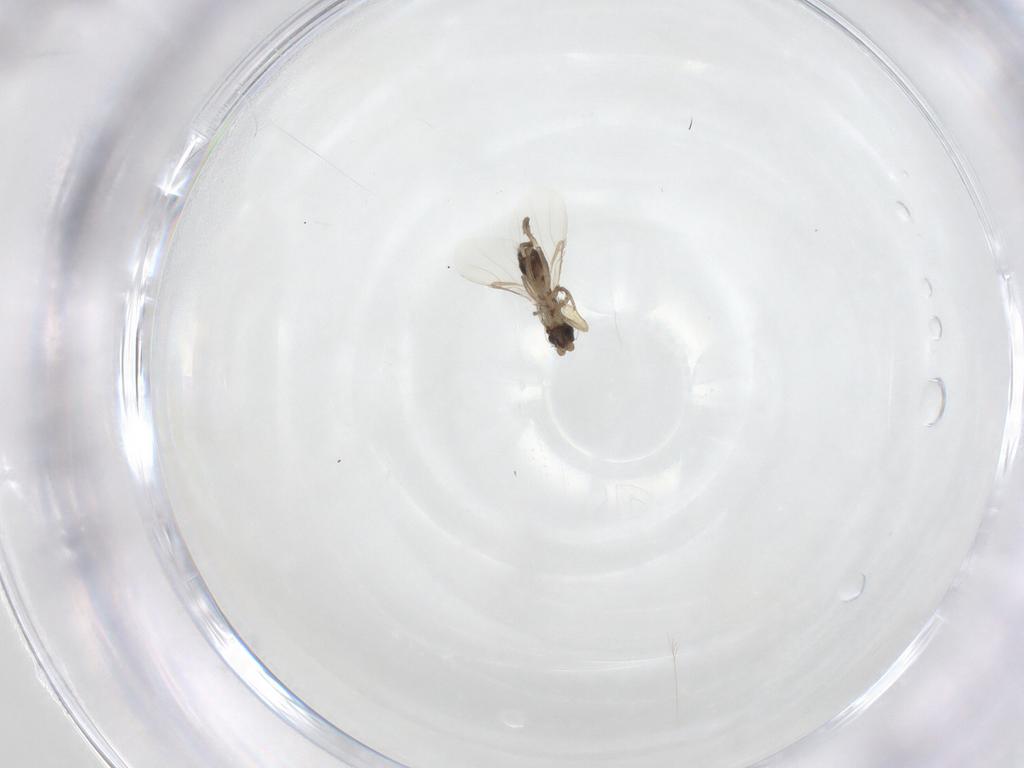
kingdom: Animalia
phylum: Arthropoda
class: Insecta
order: Diptera
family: Phoridae
